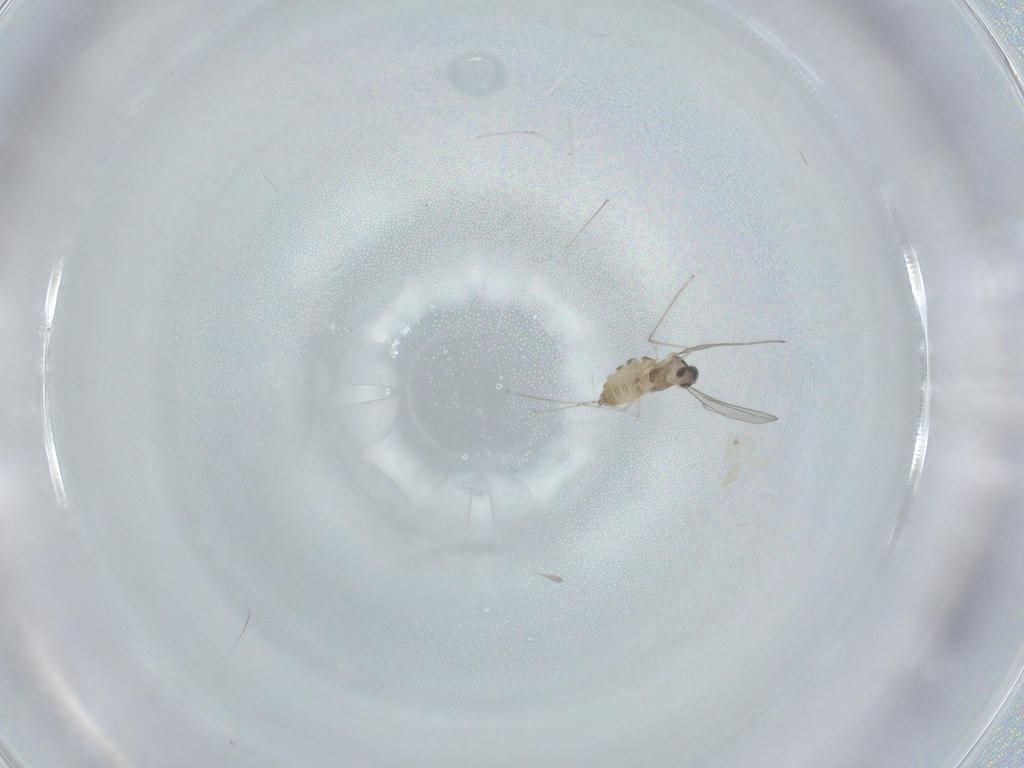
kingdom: Animalia
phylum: Arthropoda
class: Insecta
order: Diptera
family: Cecidomyiidae
